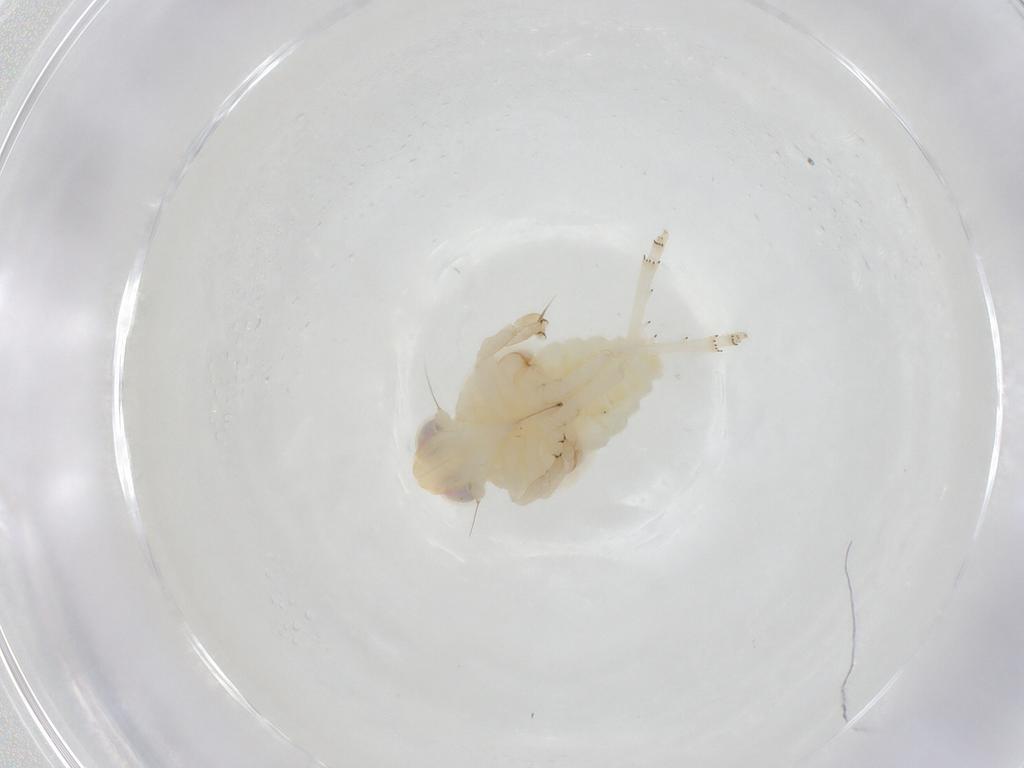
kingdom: Animalia
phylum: Arthropoda
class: Insecta
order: Hemiptera
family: Nogodinidae
